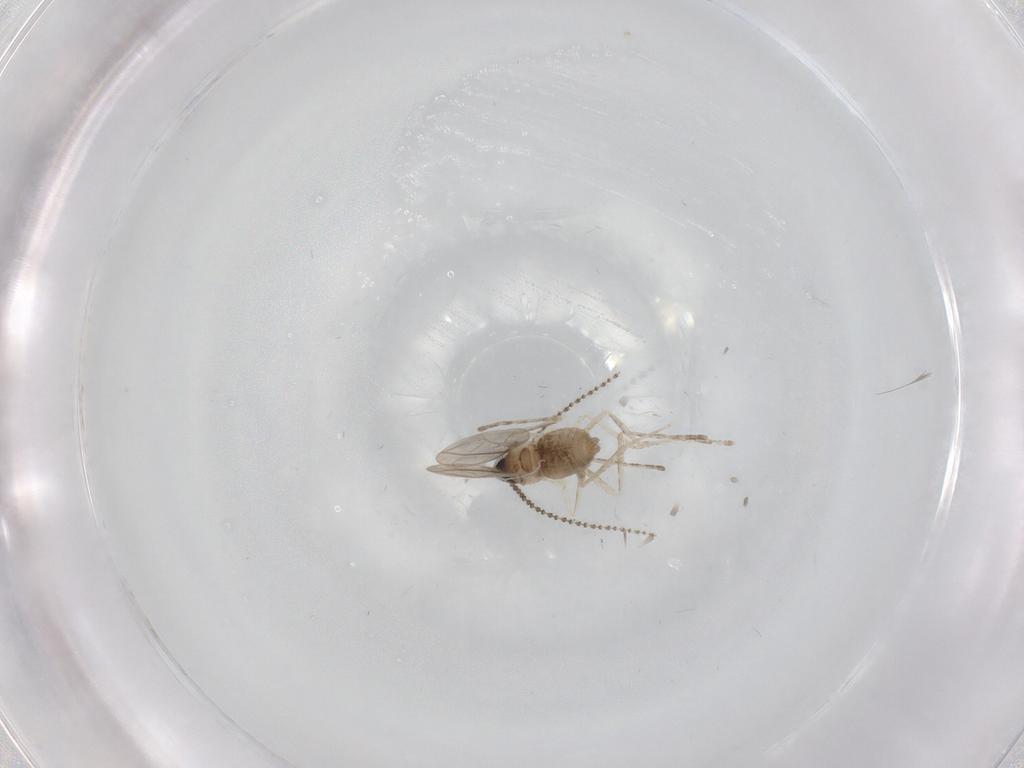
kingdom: Animalia
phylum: Arthropoda
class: Insecta
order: Diptera
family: Cecidomyiidae
